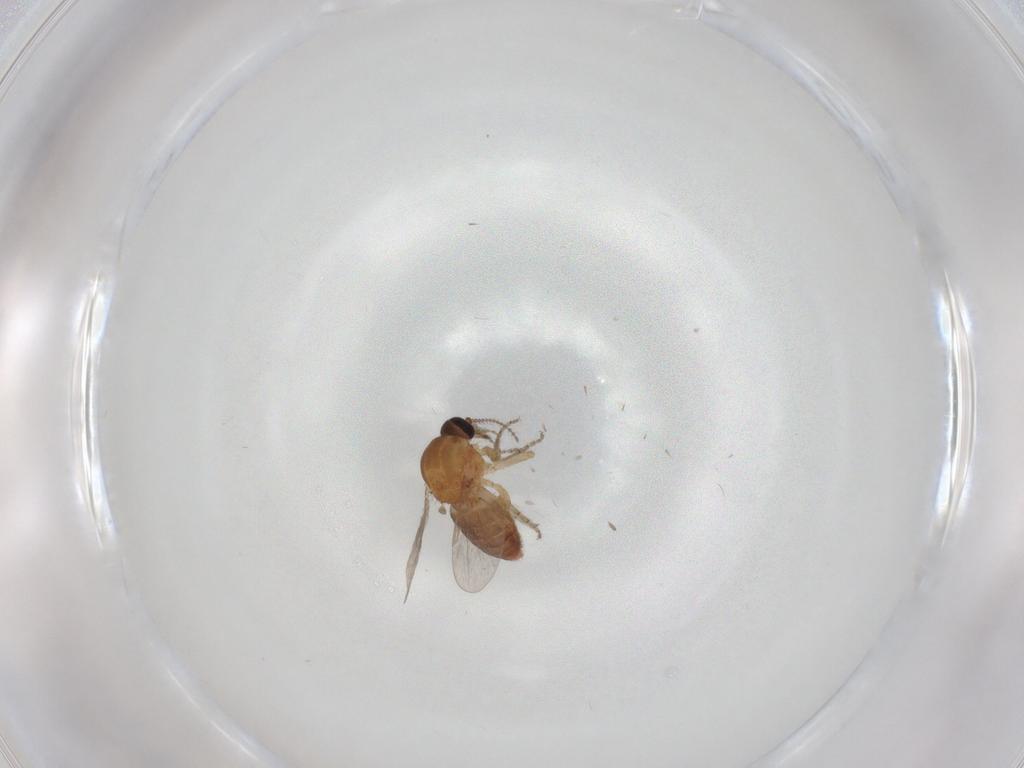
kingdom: Animalia
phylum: Arthropoda
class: Insecta
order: Diptera
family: Ceratopogonidae
